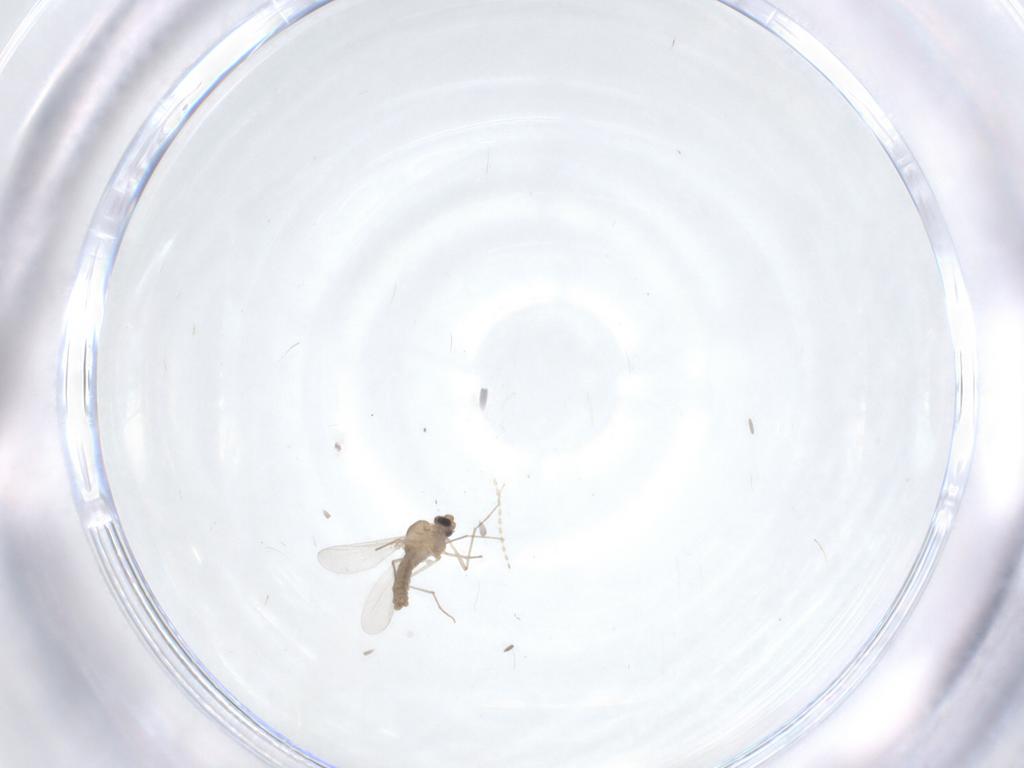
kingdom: Animalia
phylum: Arthropoda
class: Insecta
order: Diptera
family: Chironomidae
